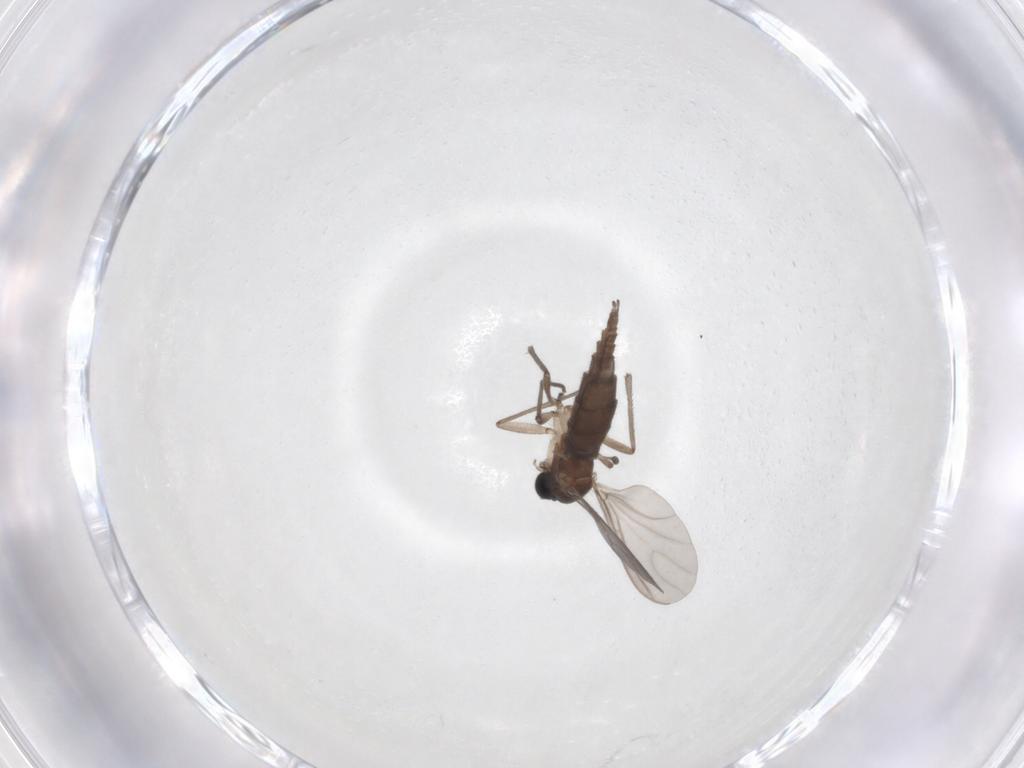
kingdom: Animalia
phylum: Arthropoda
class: Insecta
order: Diptera
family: Sciaridae
